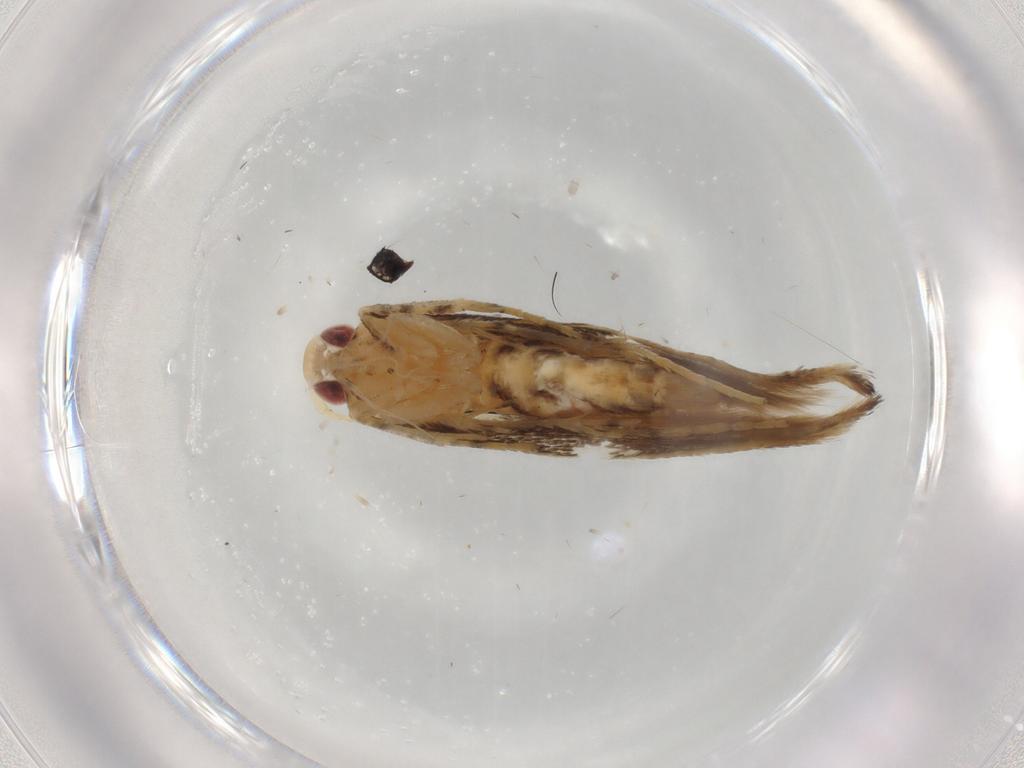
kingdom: Animalia
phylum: Arthropoda
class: Insecta
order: Lepidoptera
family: Cosmopterigidae
